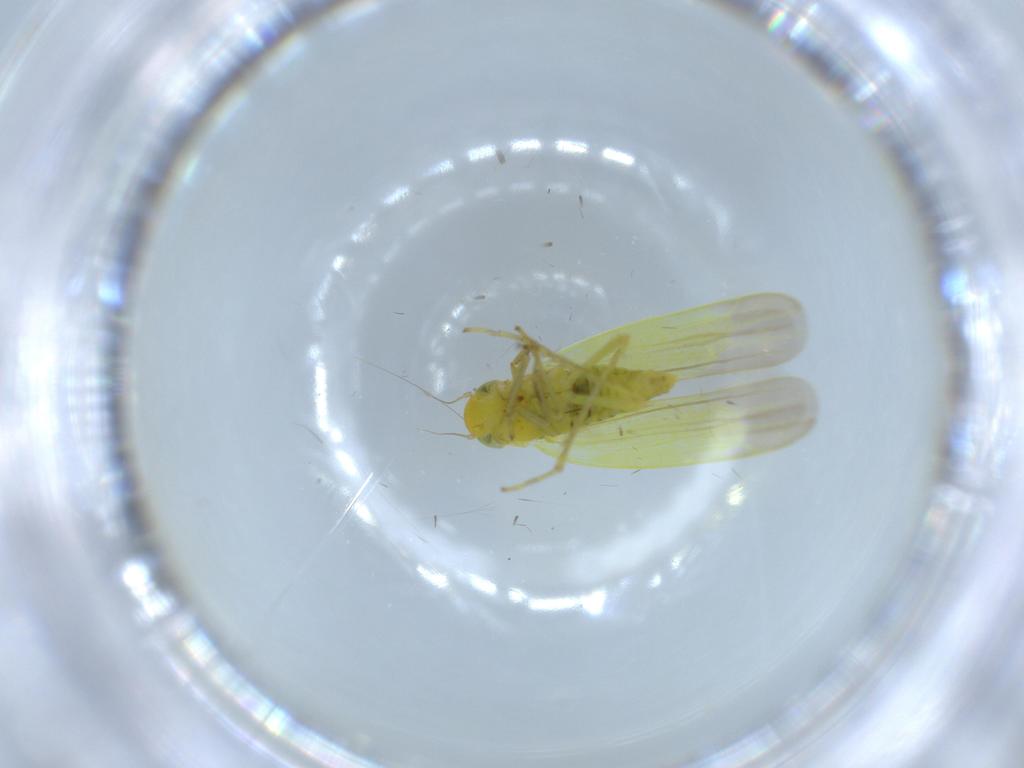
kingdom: Animalia
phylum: Arthropoda
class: Insecta
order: Hemiptera
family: Cicadellidae
